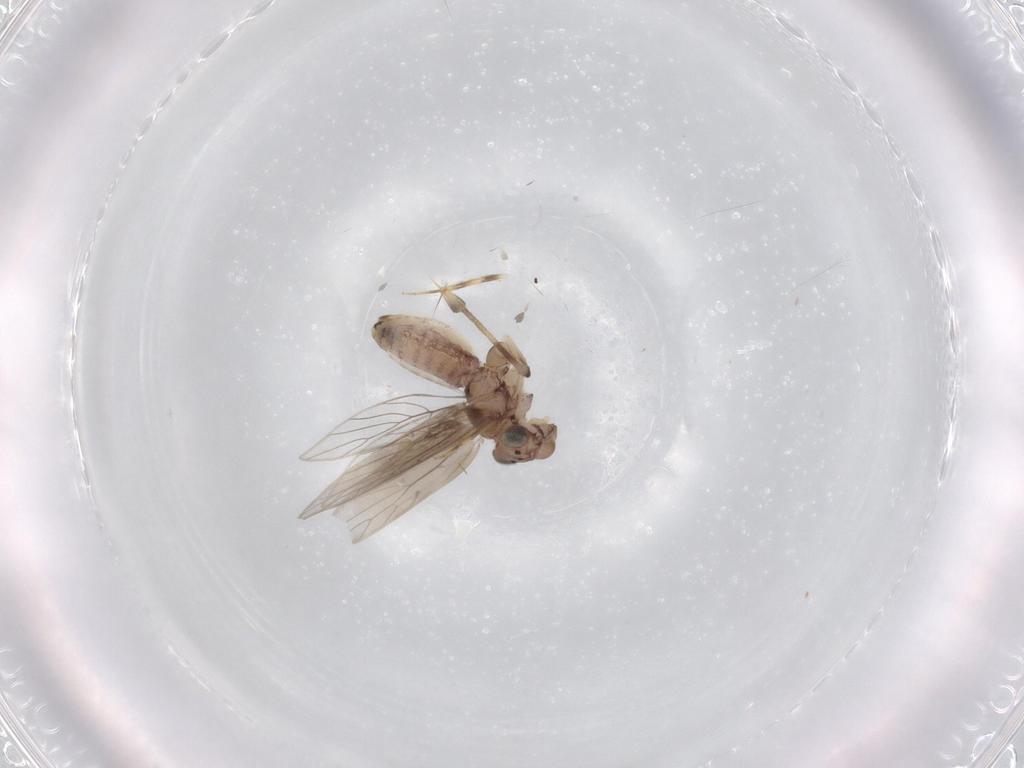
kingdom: Animalia
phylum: Arthropoda
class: Insecta
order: Psocodea
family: Lepidopsocidae
